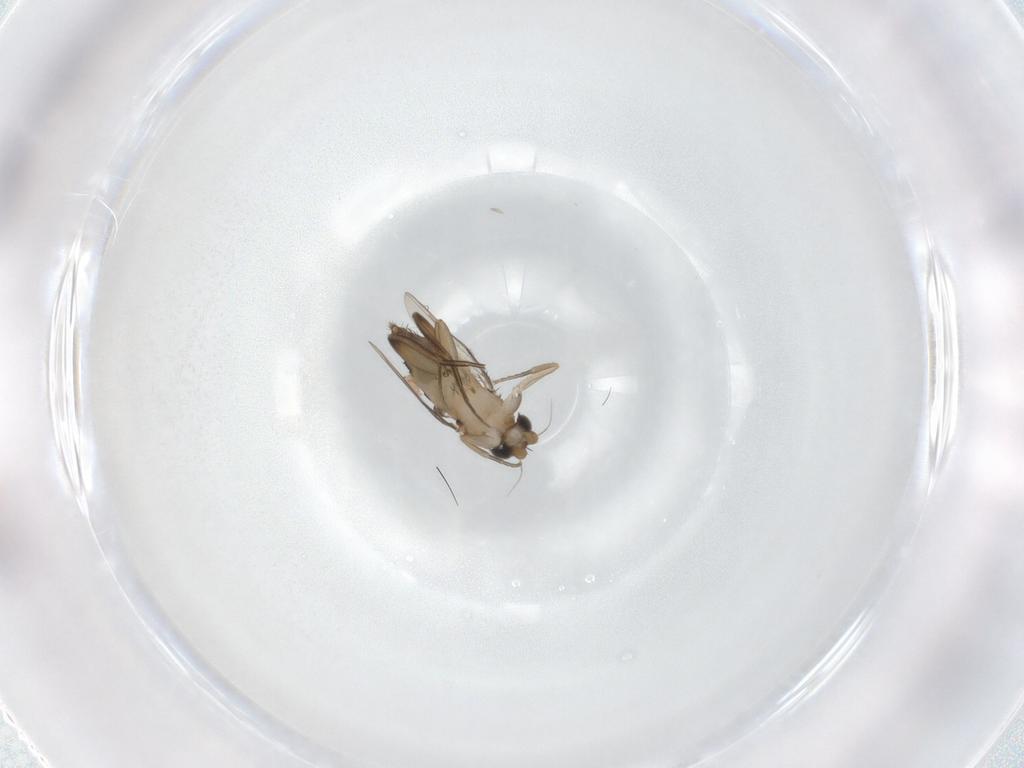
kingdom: Animalia
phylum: Arthropoda
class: Insecta
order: Diptera
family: Phoridae
